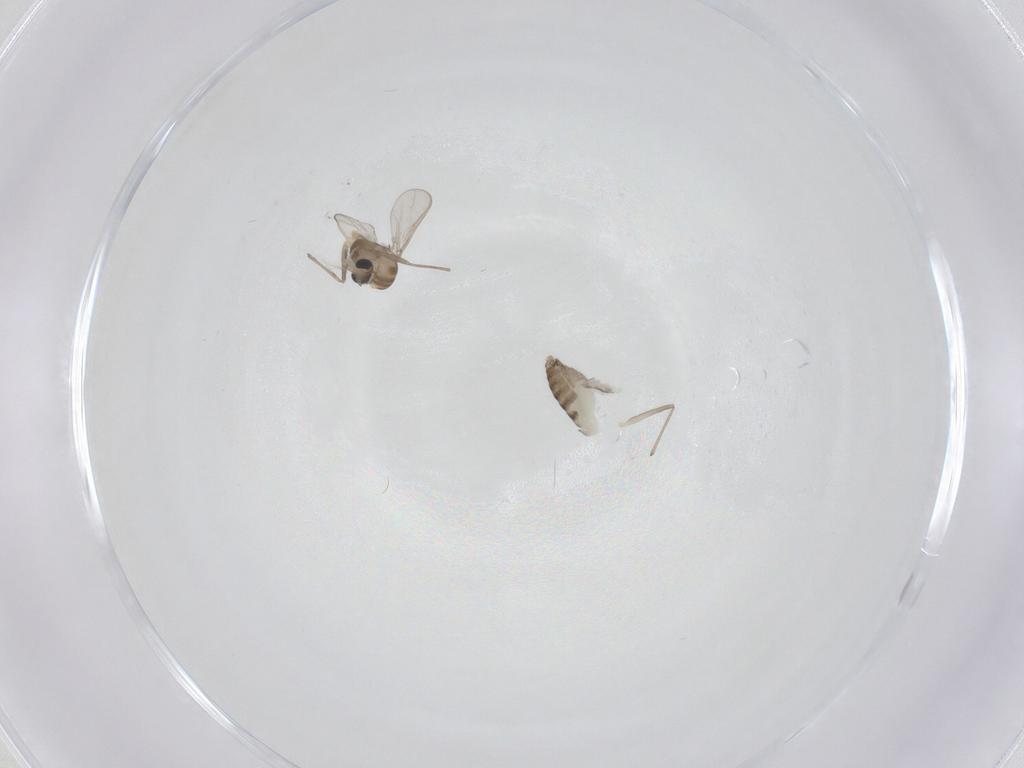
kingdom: Animalia
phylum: Arthropoda
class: Insecta
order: Diptera
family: Chironomidae
